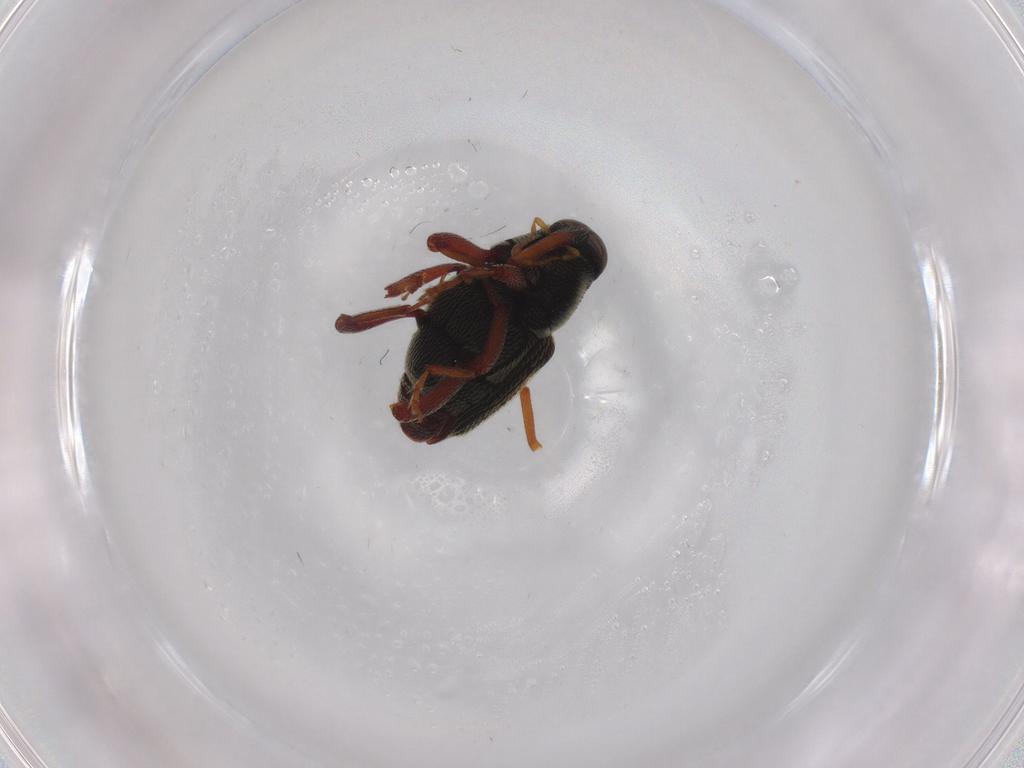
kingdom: Animalia
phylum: Arthropoda
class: Insecta
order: Coleoptera
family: Curculionidae
